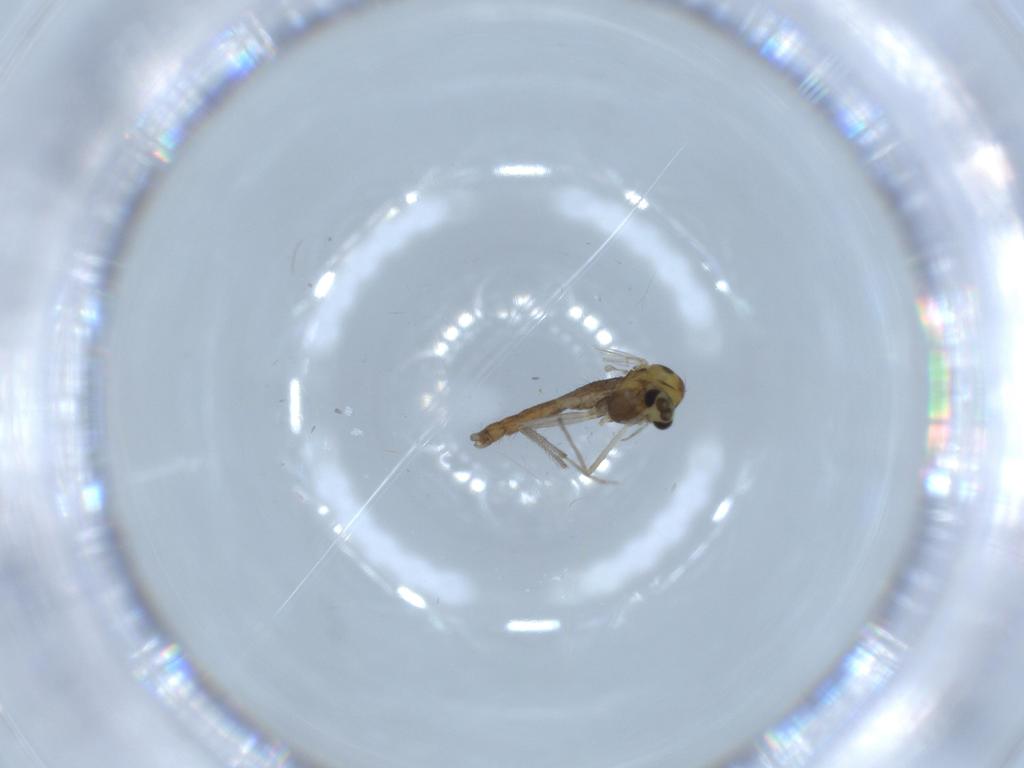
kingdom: Animalia
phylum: Arthropoda
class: Insecta
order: Diptera
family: Chironomidae
